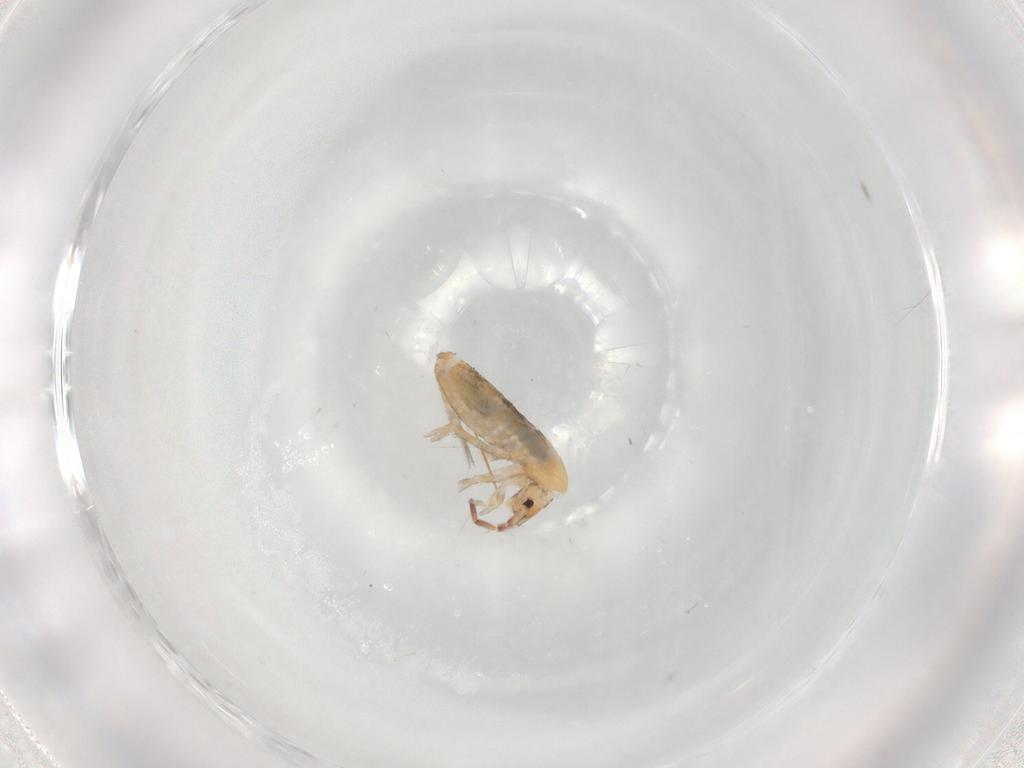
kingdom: Animalia
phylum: Arthropoda
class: Collembola
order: Entomobryomorpha
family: Entomobryidae
